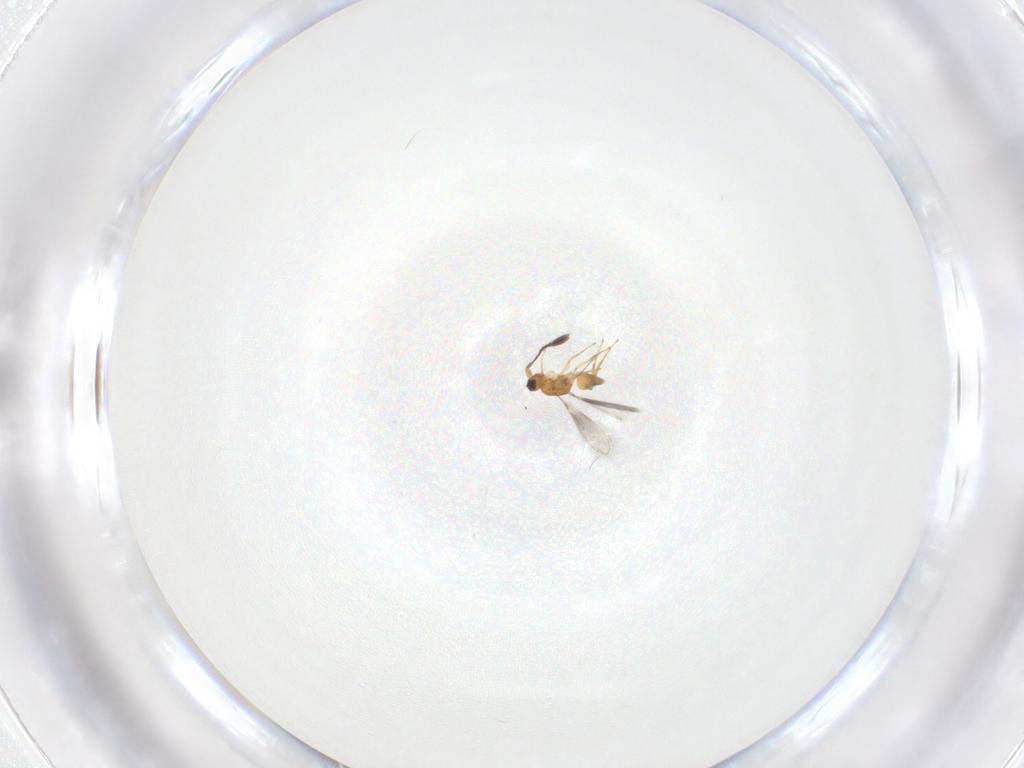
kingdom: Animalia
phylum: Arthropoda
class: Insecta
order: Hymenoptera
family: Mymaridae
